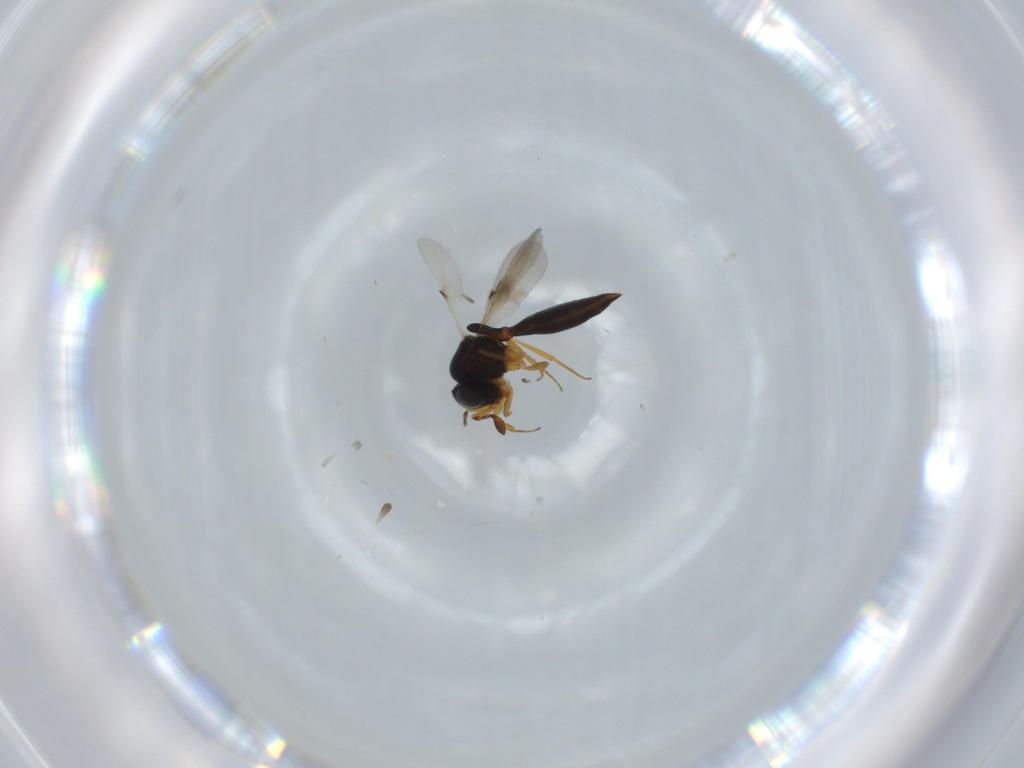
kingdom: Animalia
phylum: Arthropoda
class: Insecta
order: Hymenoptera
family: Scelionidae
